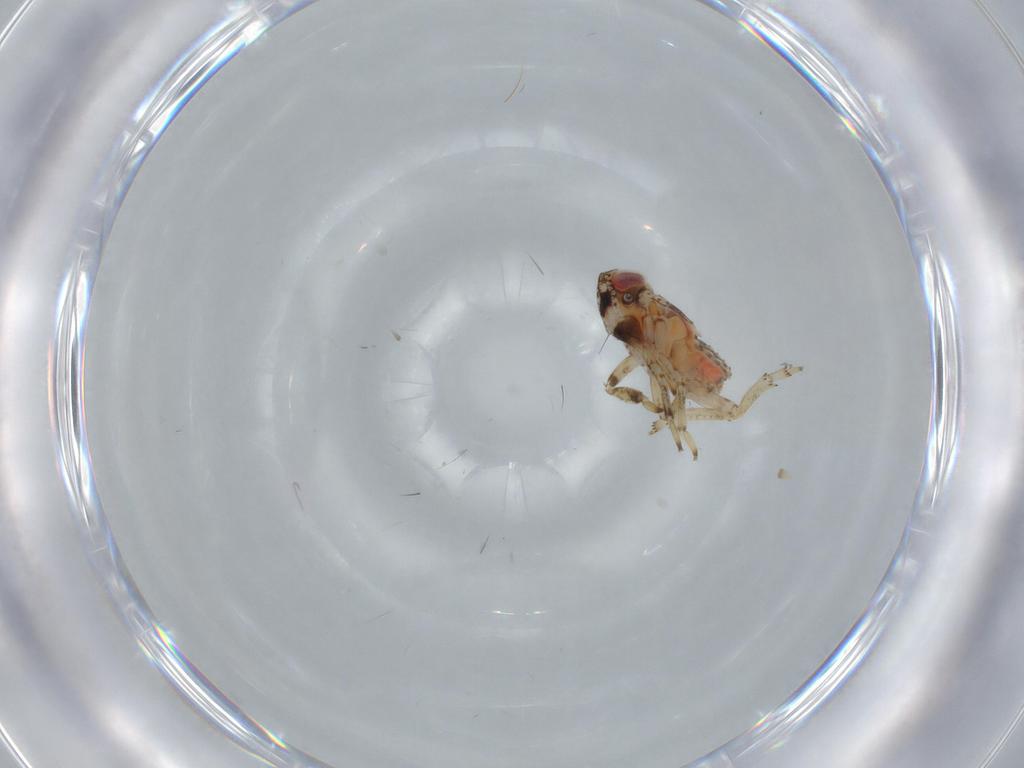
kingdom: Animalia
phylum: Arthropoda
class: Insecta
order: Hemiptera
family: Issidae
